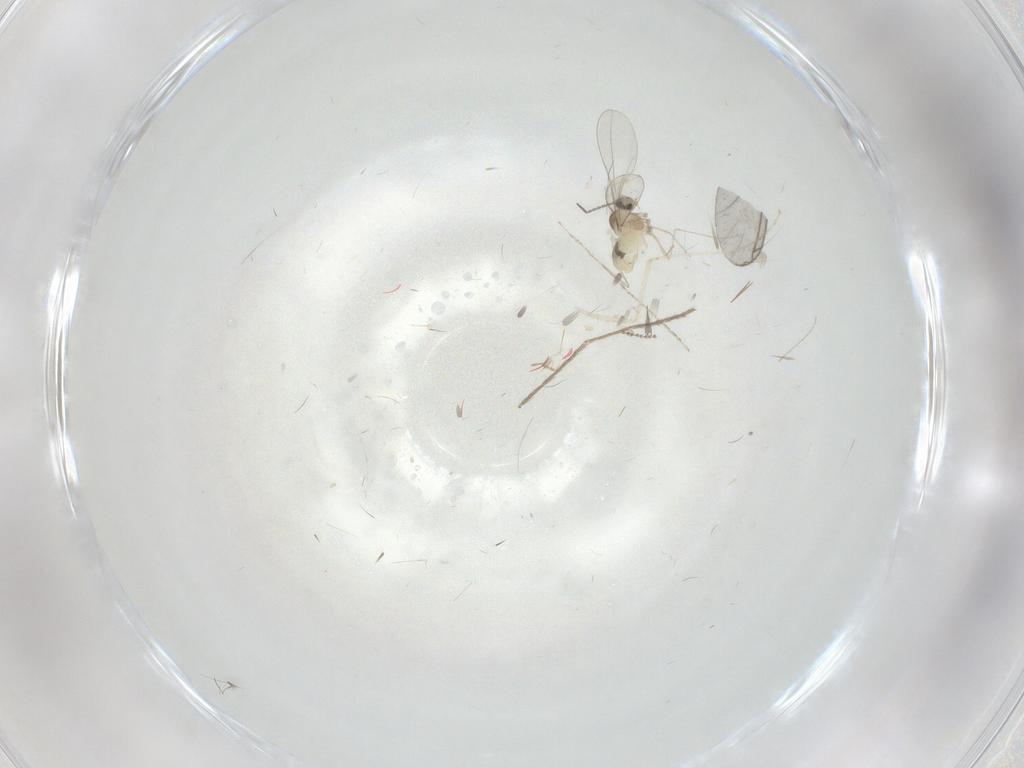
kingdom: Animalia
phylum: Arthropoda
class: Insecta
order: Diptera
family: Cecidomyiidae
